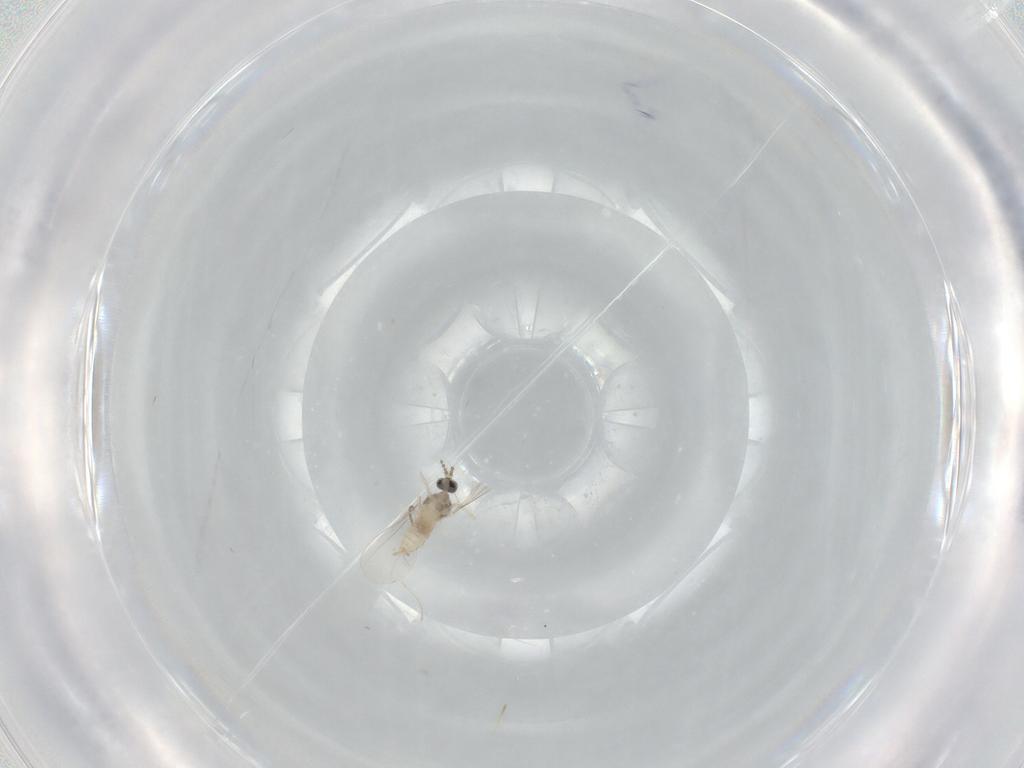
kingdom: Animalia
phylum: Arthropoda
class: Insecta
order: Diptera
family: Cecidomyiidae
